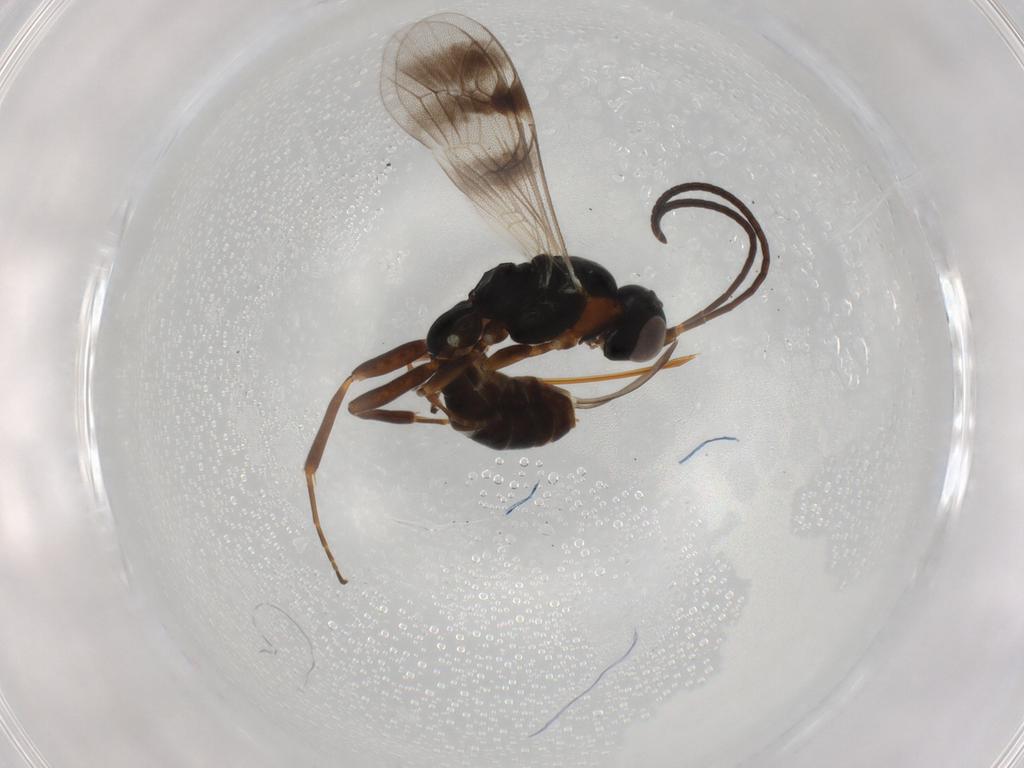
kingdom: Animalia
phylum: Arthropoda
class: Insecta
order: Hymenoptera
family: Ichneumonidae
